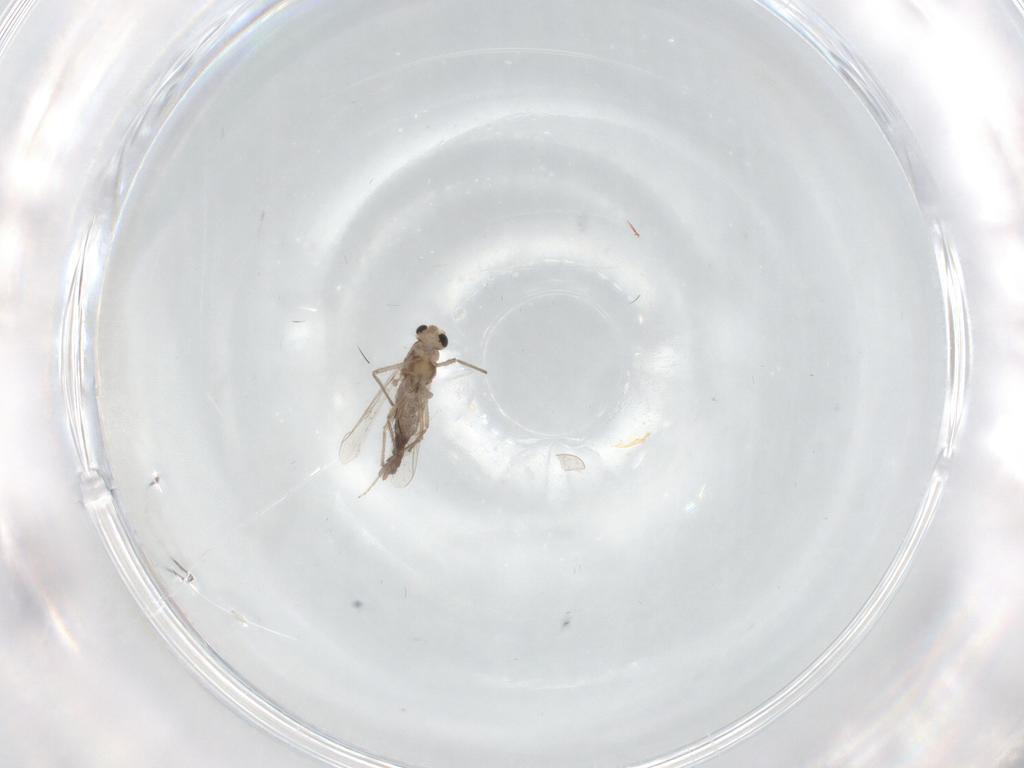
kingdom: Animalia
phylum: Arthropoda
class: Insecta
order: Diptera
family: Chironomidae
